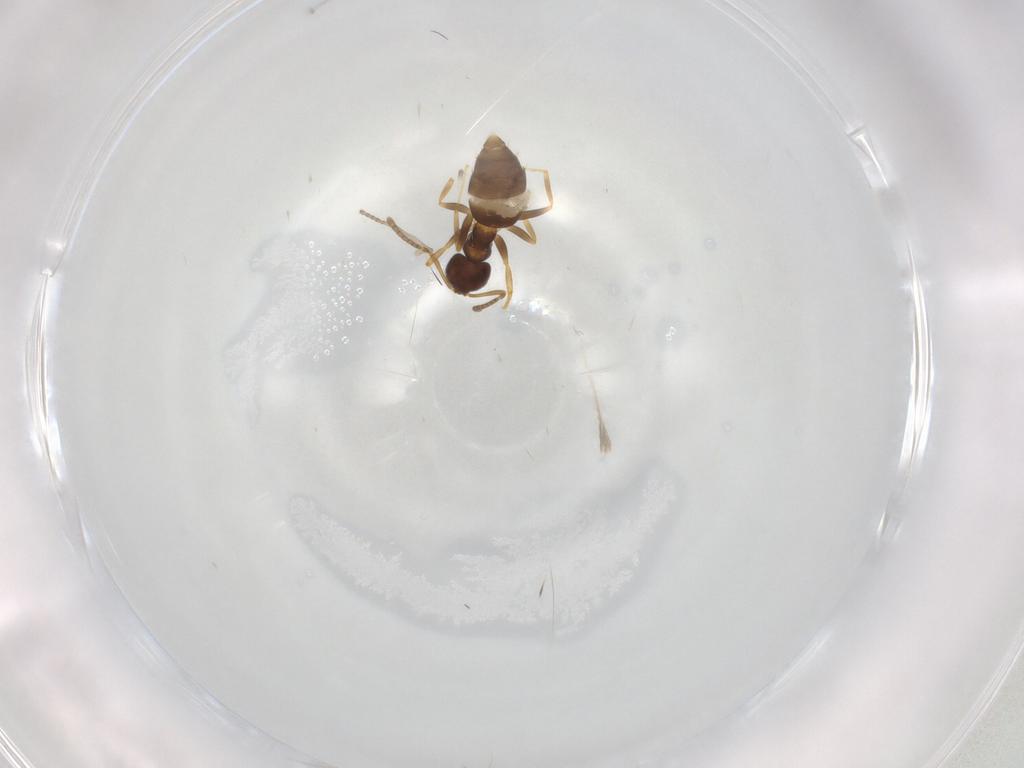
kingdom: Animalia
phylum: Arthropoda
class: Insecta
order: Hymenoptera
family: Formicidae
